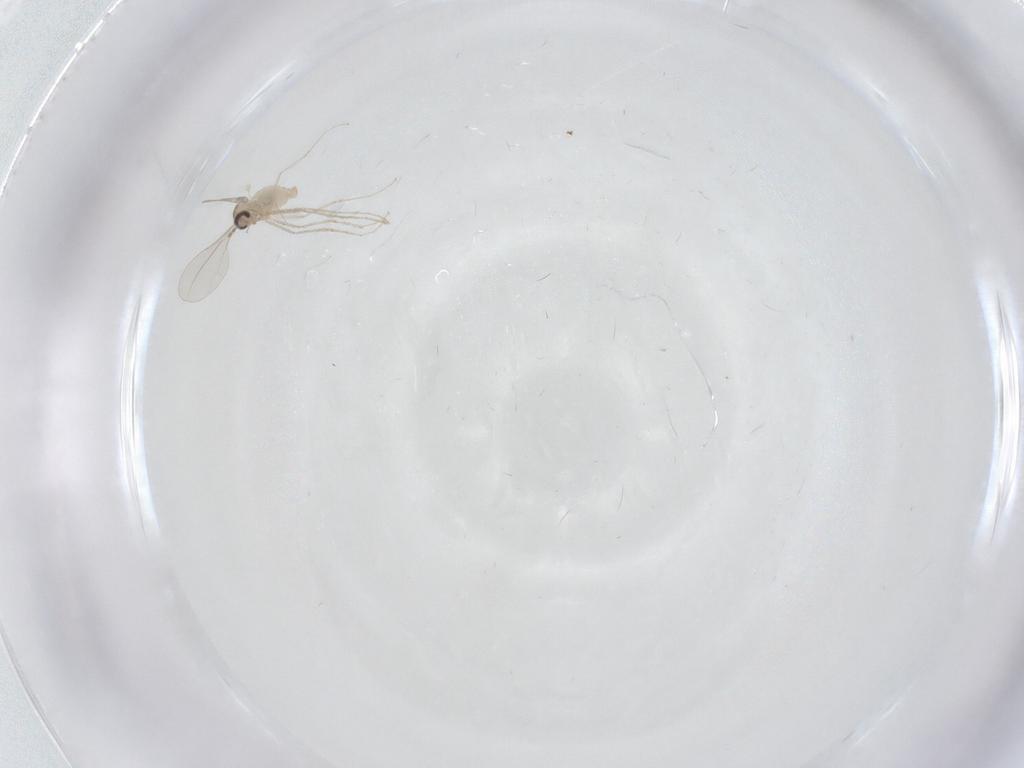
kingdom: Animalia
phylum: Arthropoda
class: Insecta
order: Diptera
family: Cecidomyiidae
